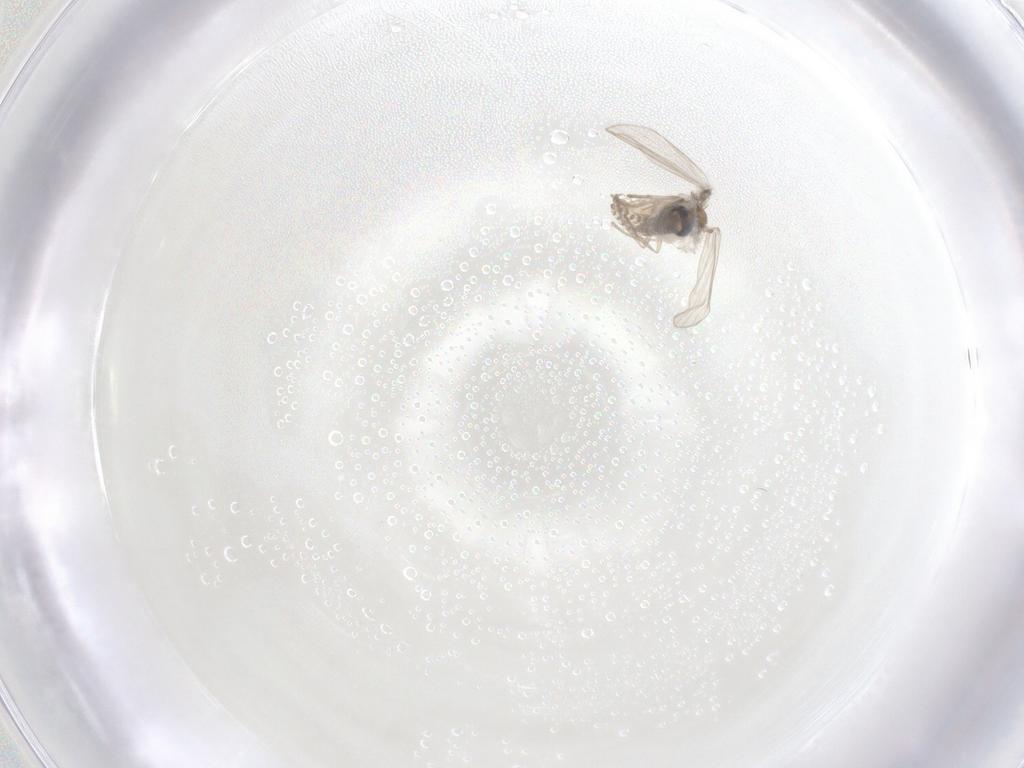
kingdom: Animalia
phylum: Arthropoda
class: Insecta
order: Diptera
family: Psychodidae
